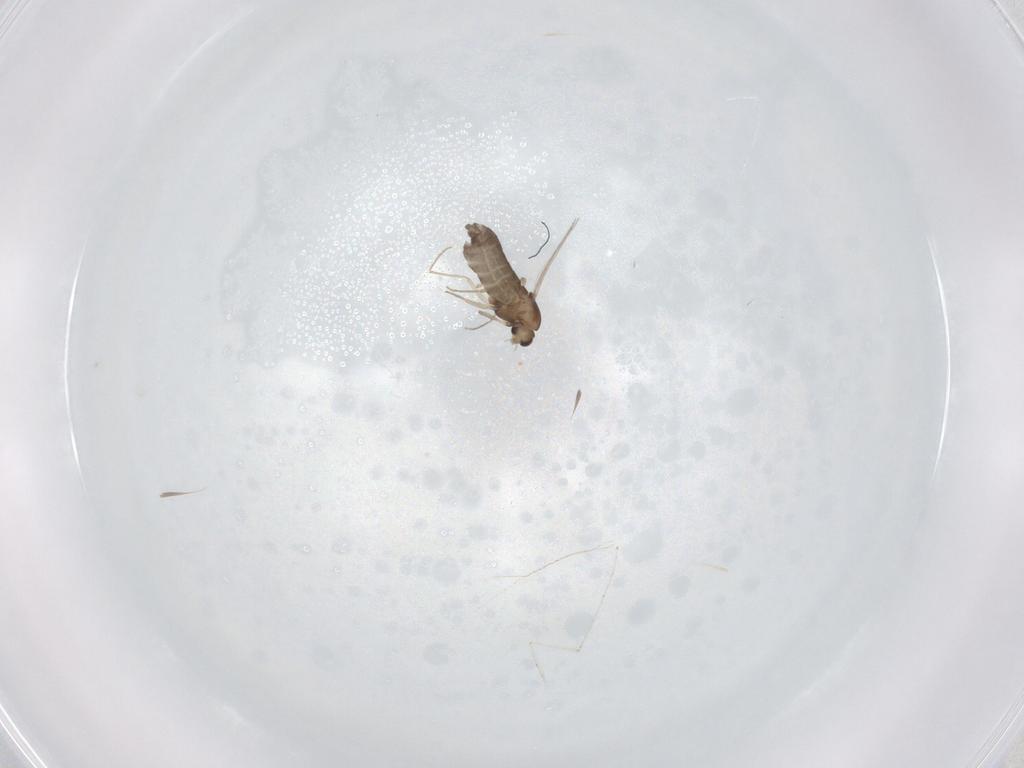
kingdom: Animalia
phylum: Arthropoda
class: Insecta
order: Diptera
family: Chironomidae
